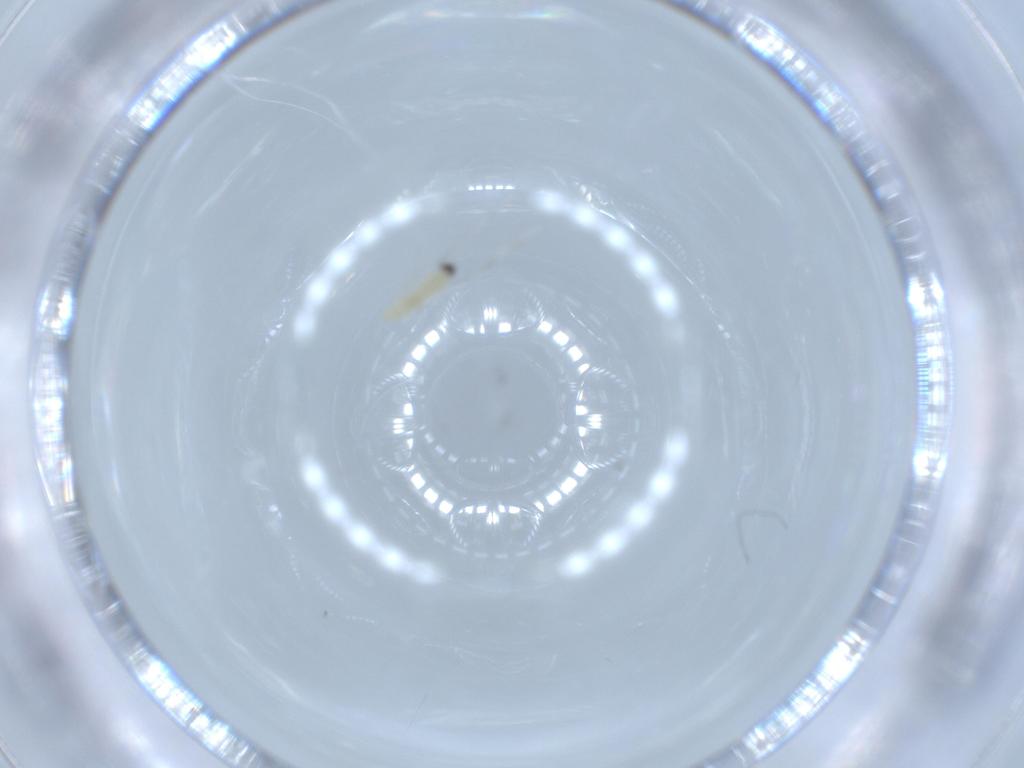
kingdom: Animalia
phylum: Arthropoda
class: Insecta
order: Diptera
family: Cecidomyiidae
